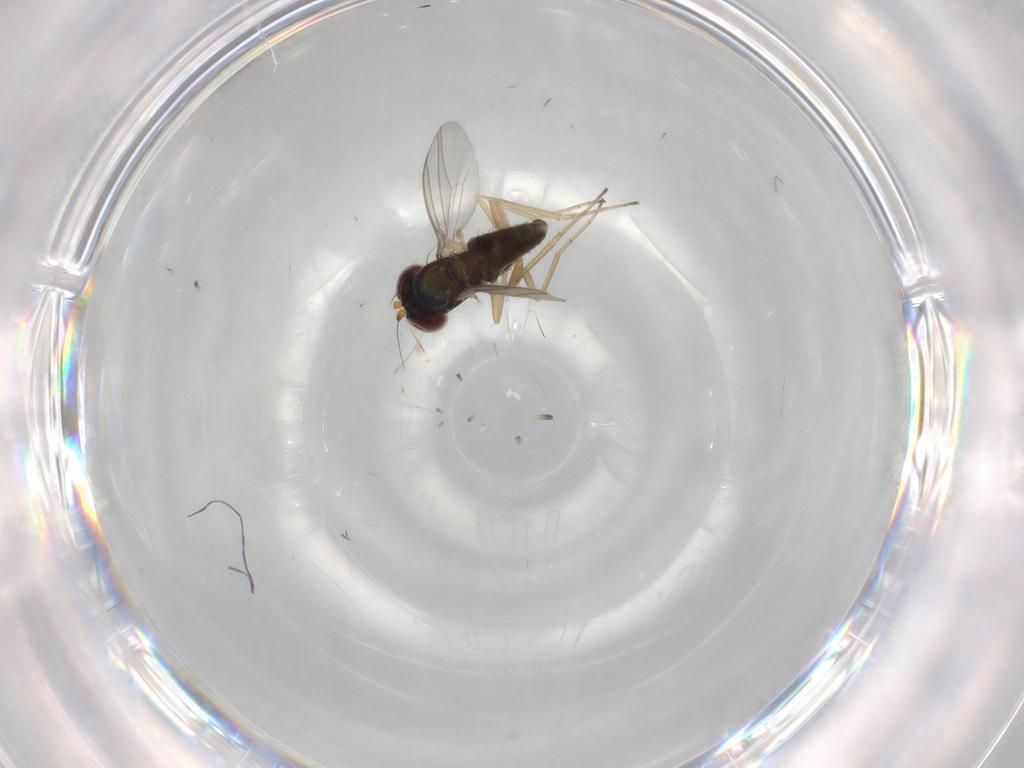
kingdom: Animalia
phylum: Arthropoda
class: Insecta
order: Diptera
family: Dolichopodidae
